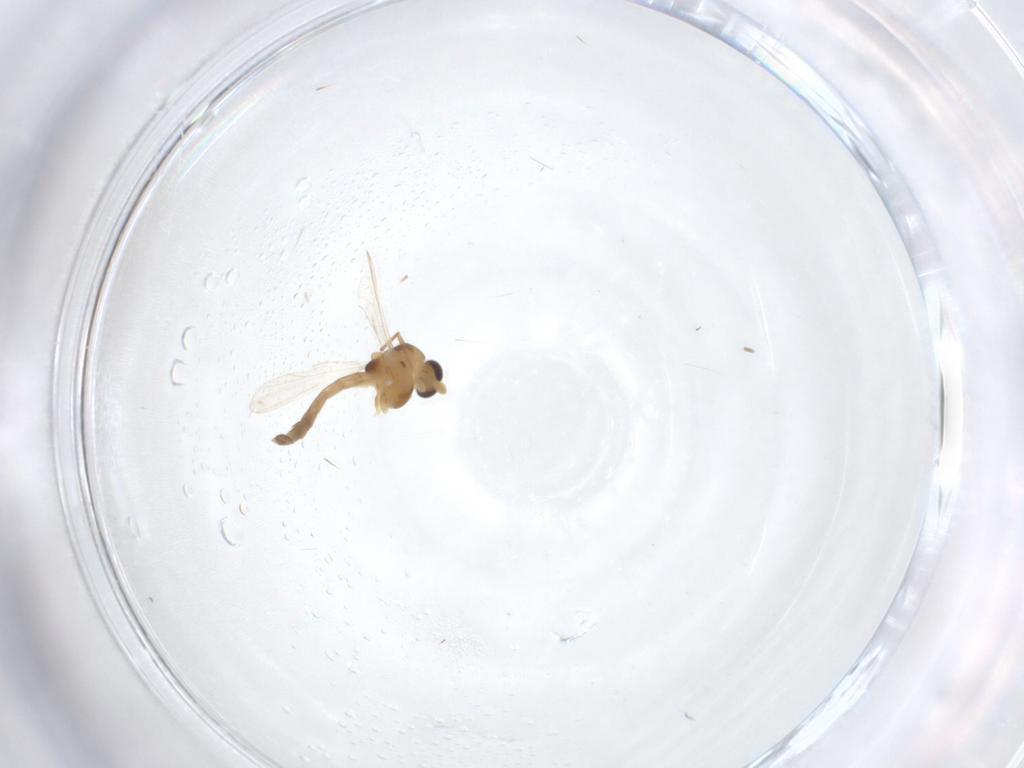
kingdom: Animalia
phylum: Arthropoda
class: Insecta
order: Diptera
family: Chironomidae
